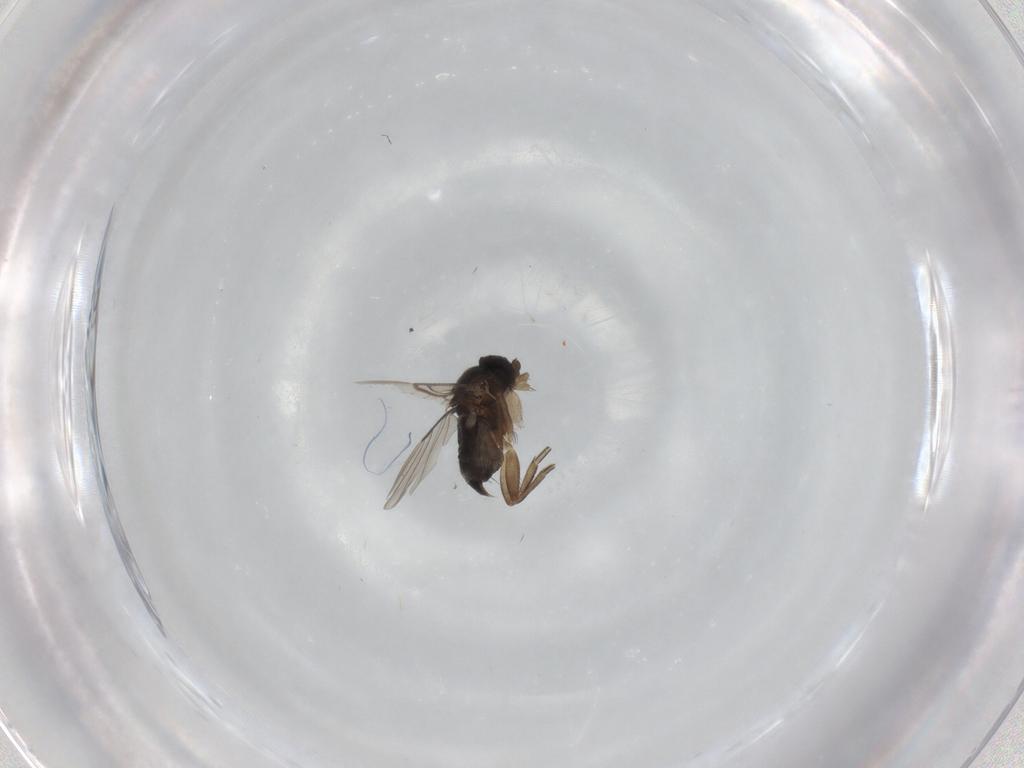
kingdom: Animalia
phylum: Arthropoda
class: Insecta
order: Diptera
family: Phoridae
